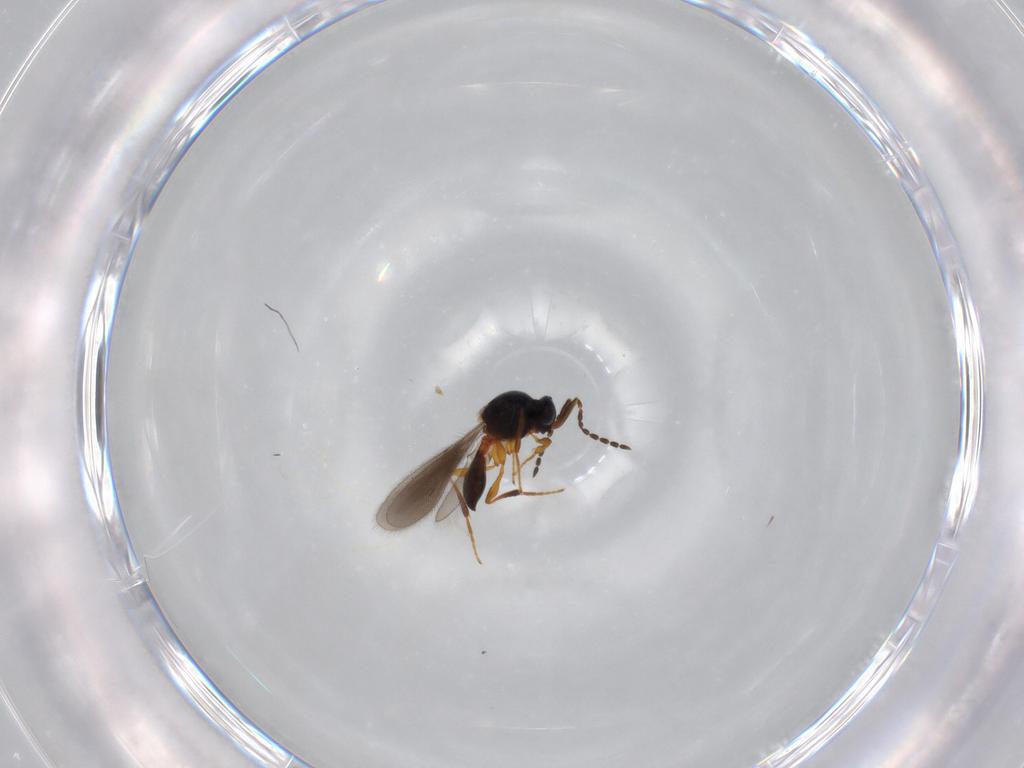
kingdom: Animalia
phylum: Arthropoda
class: Insecta
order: Hymenoptera
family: Platygastridae
